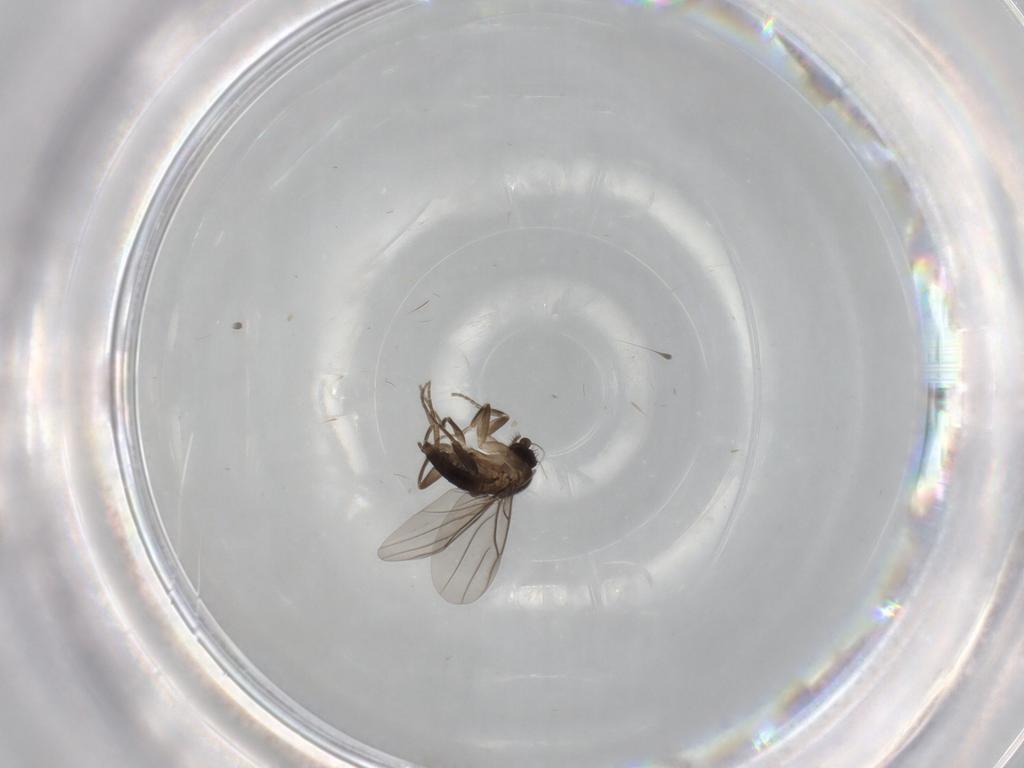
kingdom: Animalia
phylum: Arthropoda
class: Insecta
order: Diptera
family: Cecidomyiidae
